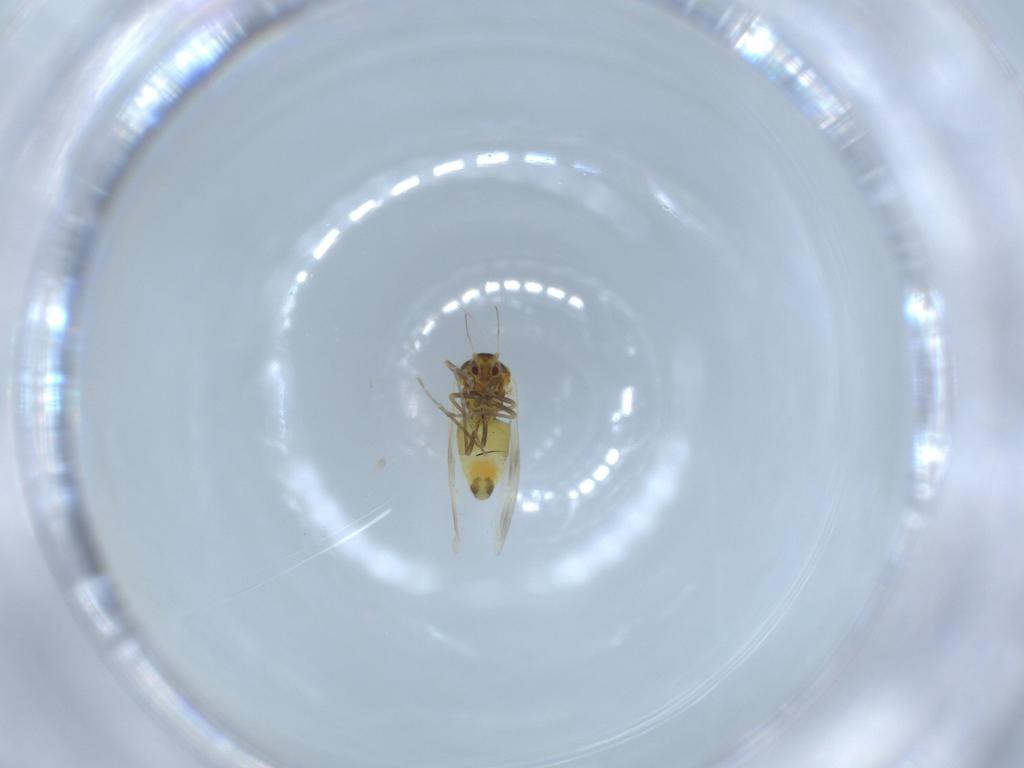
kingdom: Animalia
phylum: Arthropoda
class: Insecta
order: Hemiptera
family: Aleyrodidae
